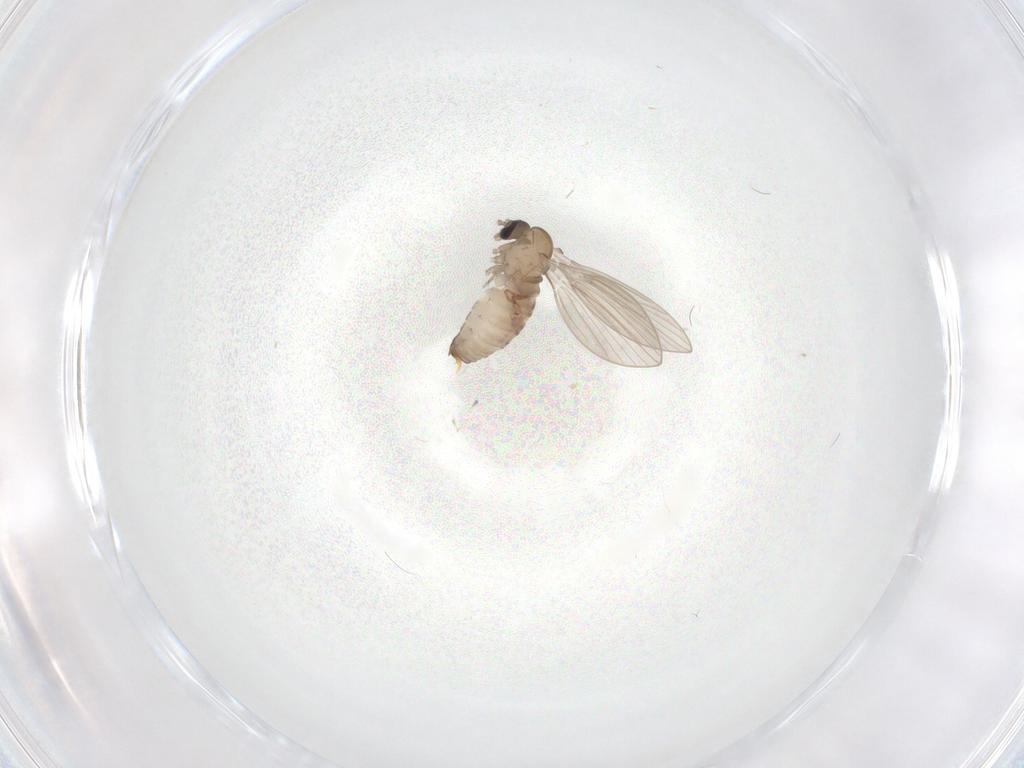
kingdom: Animalia
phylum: Arthropoda
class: Insecta
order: Diptera
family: Psychodidae
